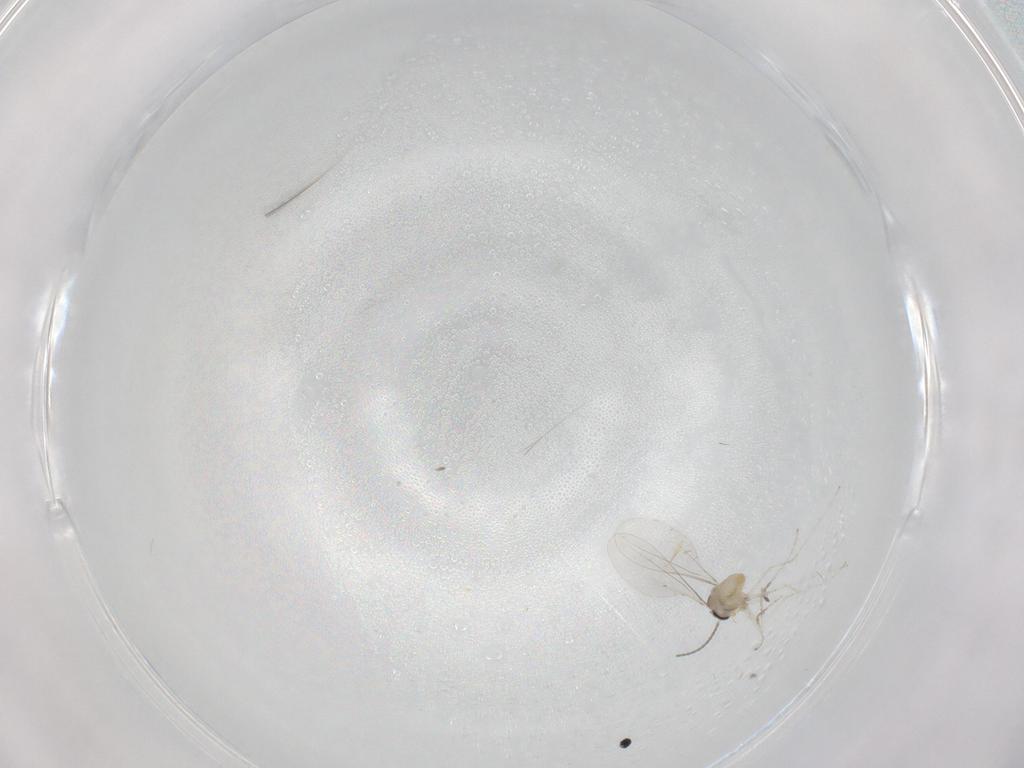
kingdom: Animalia
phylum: Arthropoda
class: Insecta
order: Diptera
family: Cecidomyiidae
